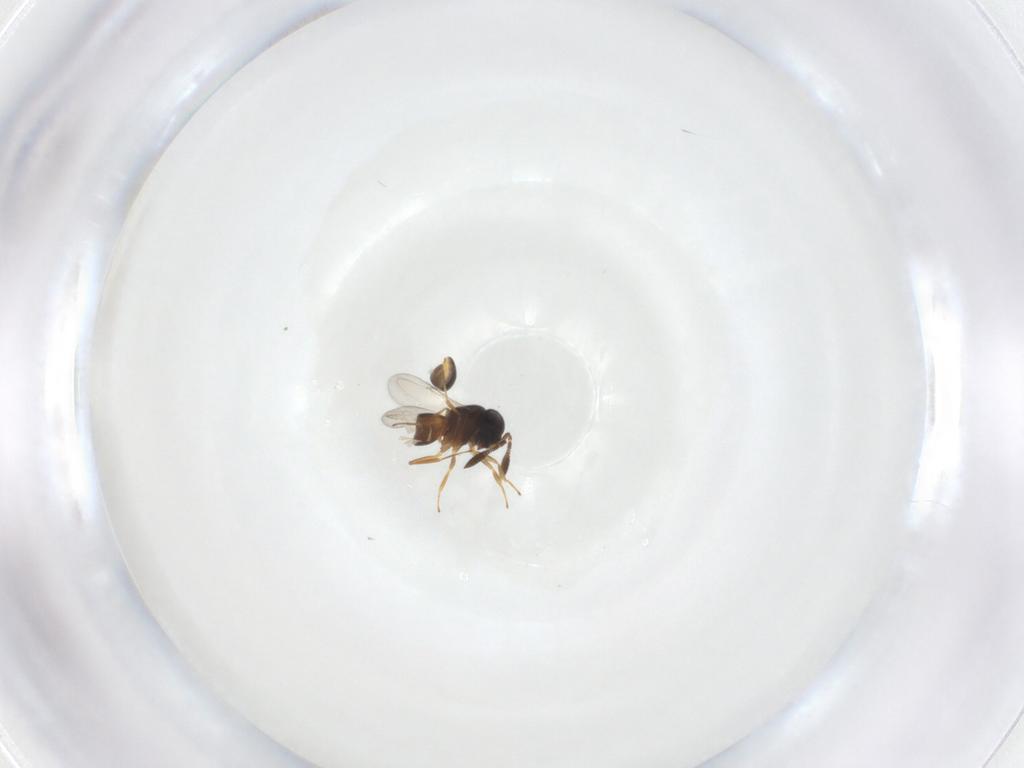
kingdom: Animalia
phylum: Arthropoda
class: Insecta
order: Hymenoptera
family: Scelionidae
